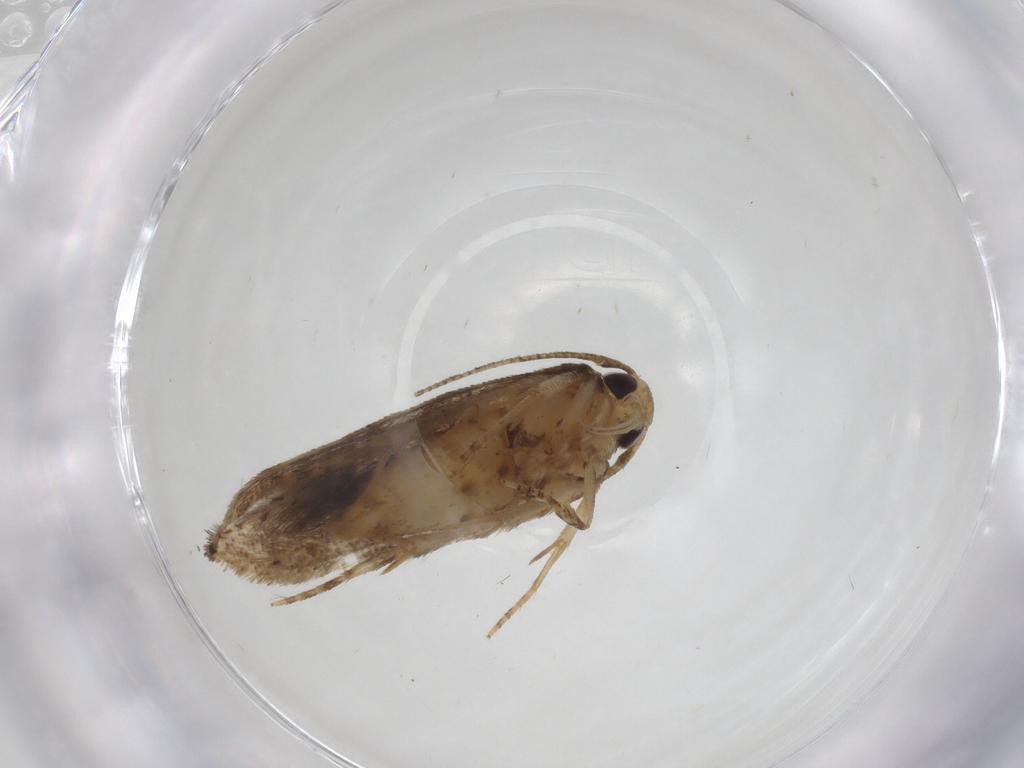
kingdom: Animalia
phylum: Arthropoda
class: Insecta
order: Lepidoptera
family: Cosmopterigidae
